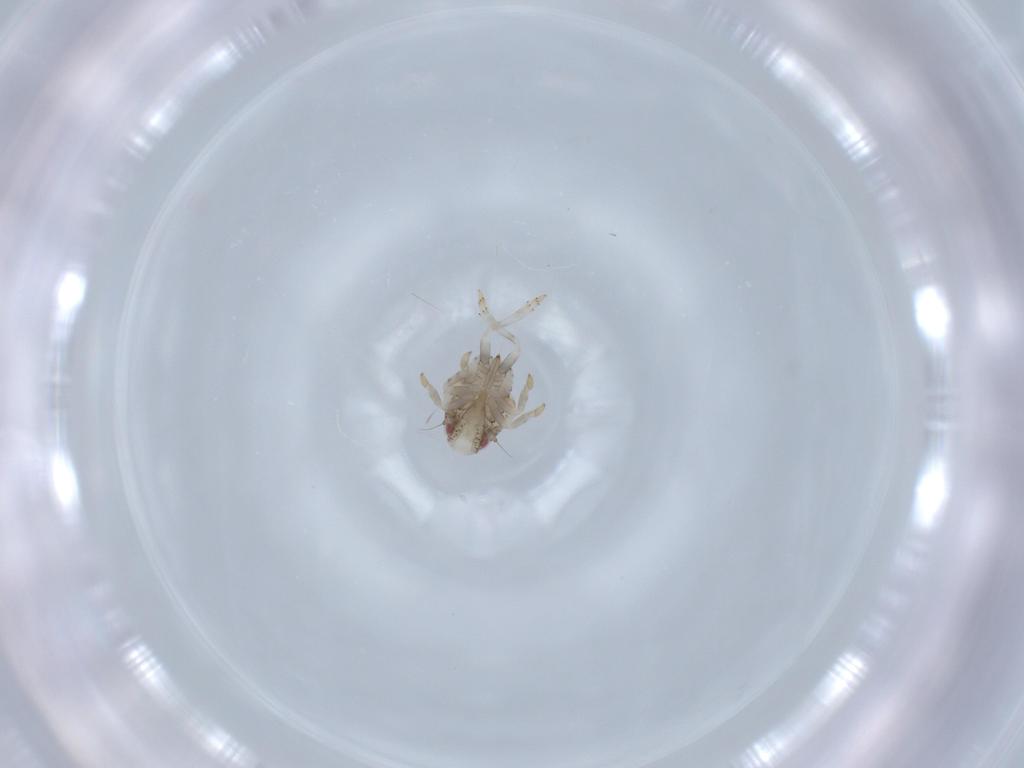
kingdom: Animalia
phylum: Arthropoda
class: Insecta
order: Hemiptera
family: Acanaloniidae
